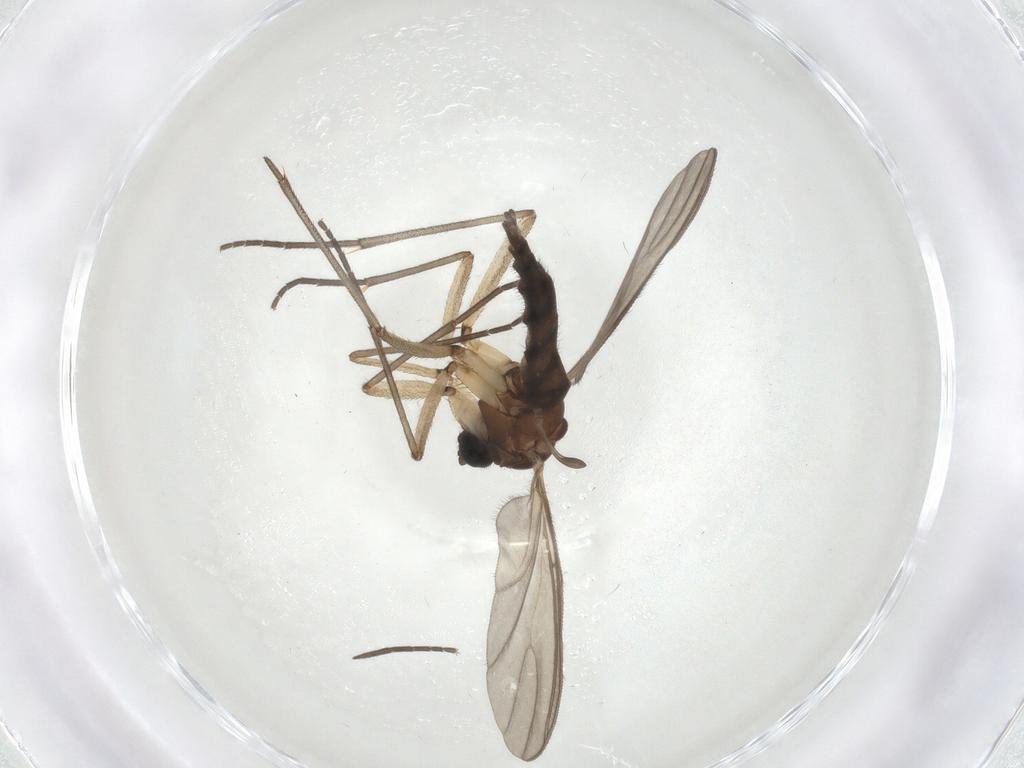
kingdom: Animalia
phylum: Arthropoda
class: Insecta
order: Diptera
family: Sciaridae
